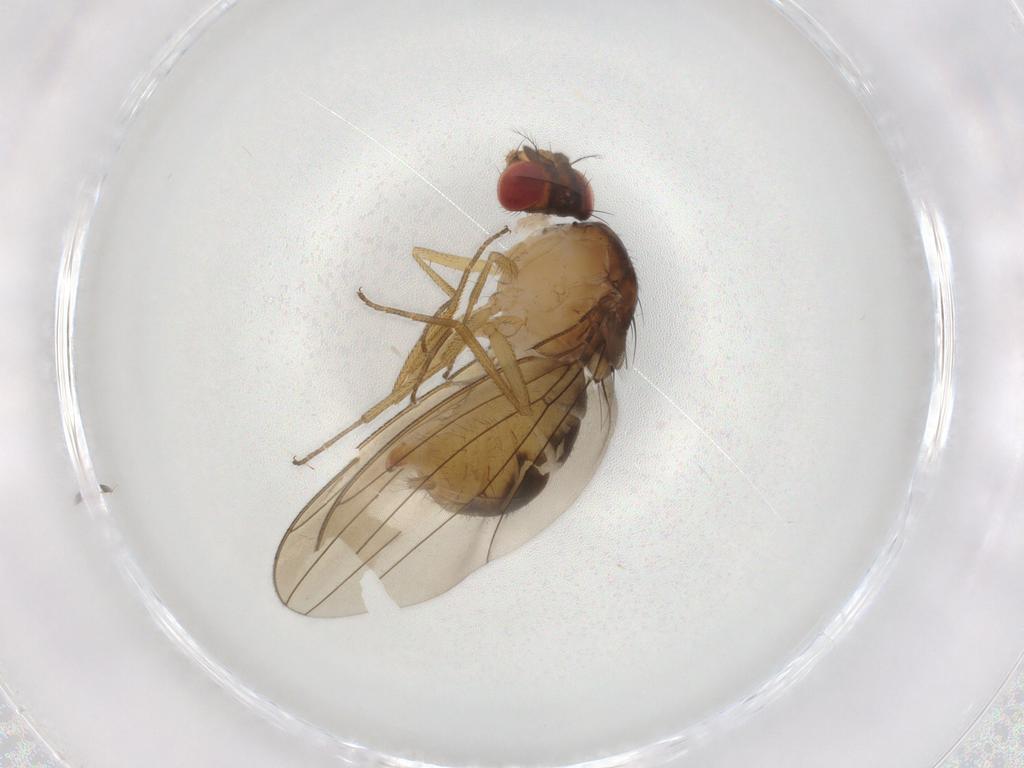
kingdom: Animalia
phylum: Arthropoda
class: Insecta
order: Diptera
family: Drosophilidae
